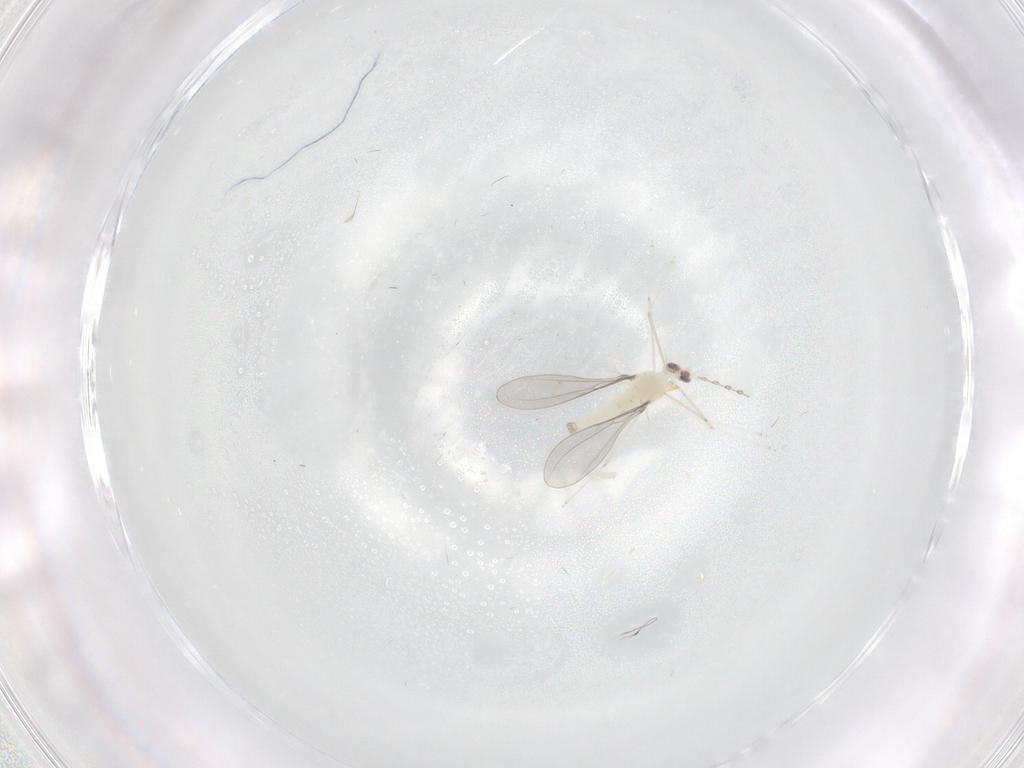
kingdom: Animalia
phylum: Arthropoda
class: Insecta
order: Diptera
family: Cecidomyiidae
